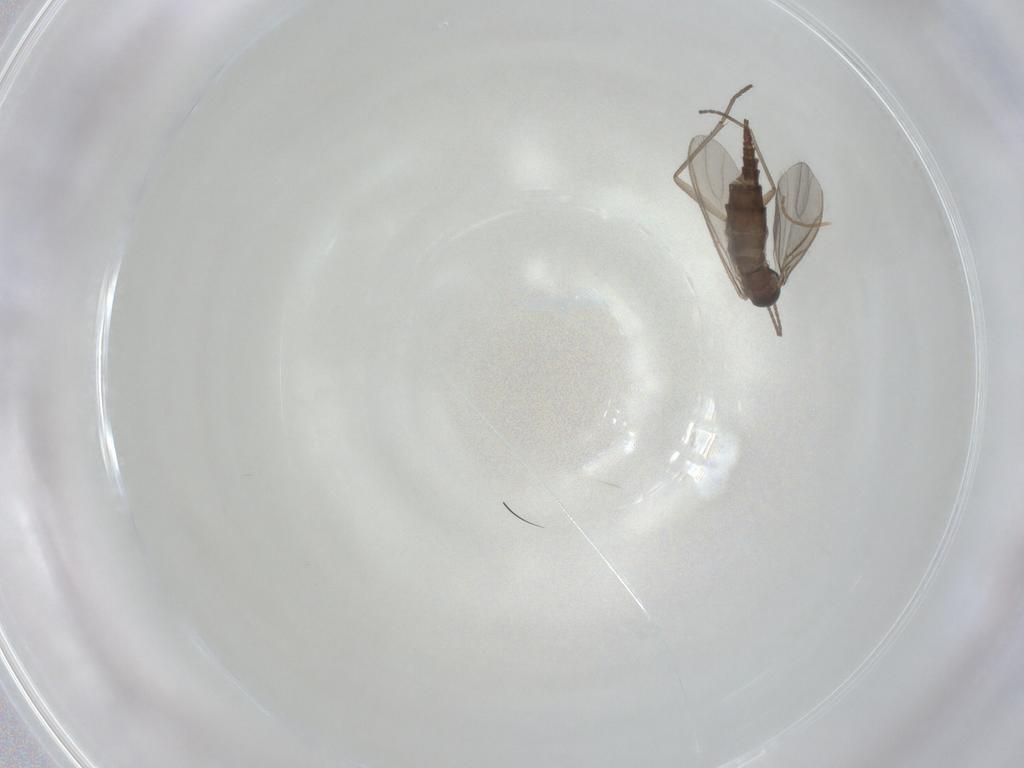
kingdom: Animalia
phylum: Arthropoda
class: Insecta
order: Diptera
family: Sciaridae
